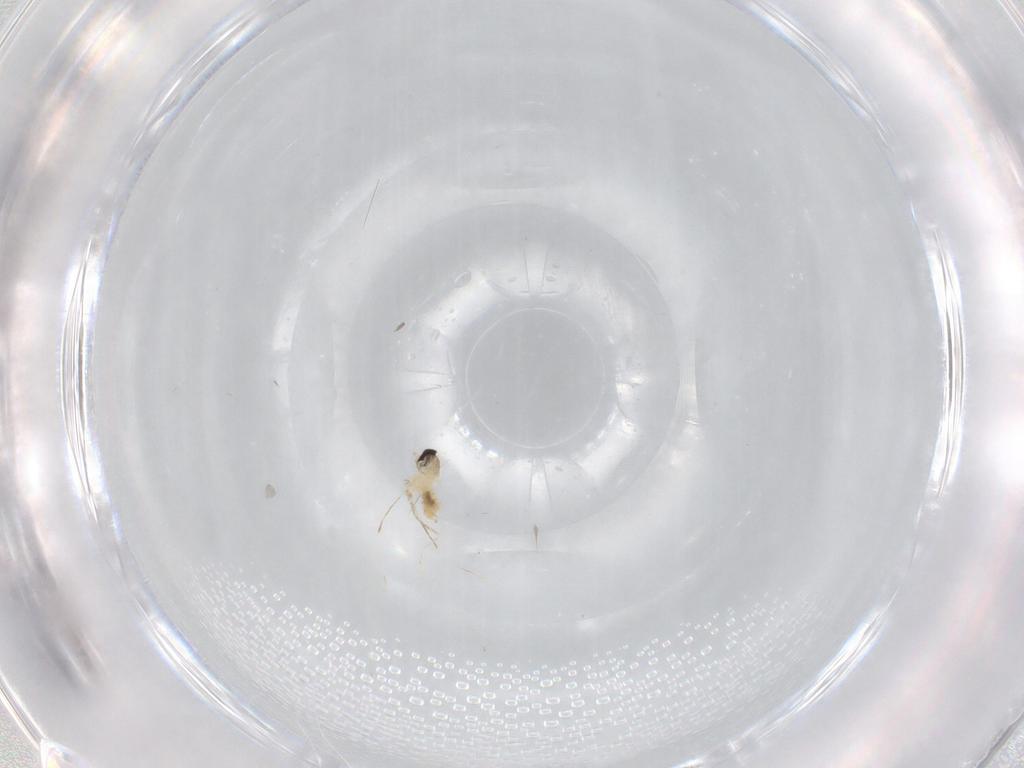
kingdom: Animalia
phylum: Arthropoda
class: Insecta
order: Diptera
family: Cecidomyiidae
